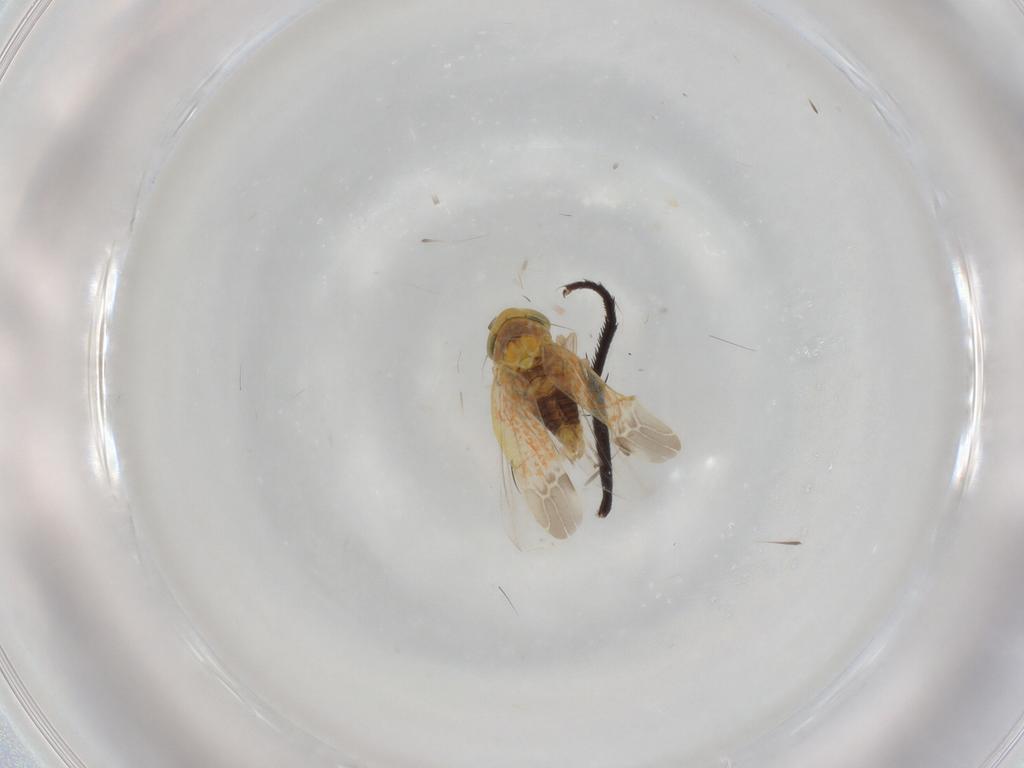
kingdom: Animalia
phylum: Arthropoda
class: Insecta
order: Hemiptera
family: Cicadellidae
